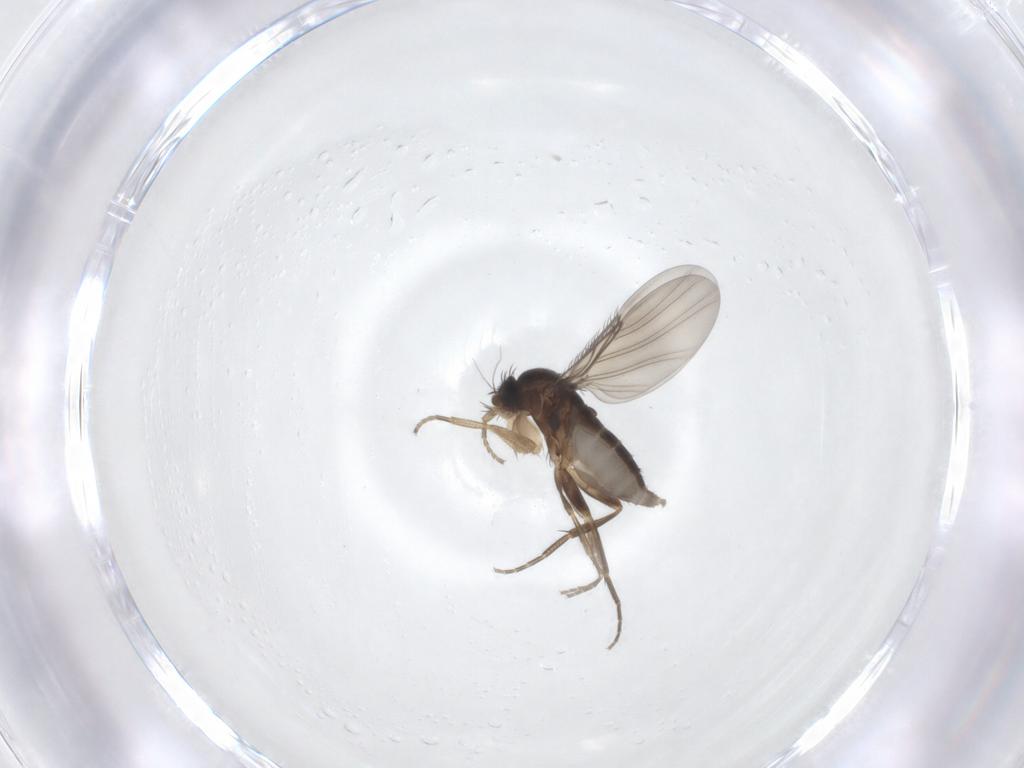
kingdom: Animalia
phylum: Arthropoda
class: Insecta
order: Diptera
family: Phoridae
